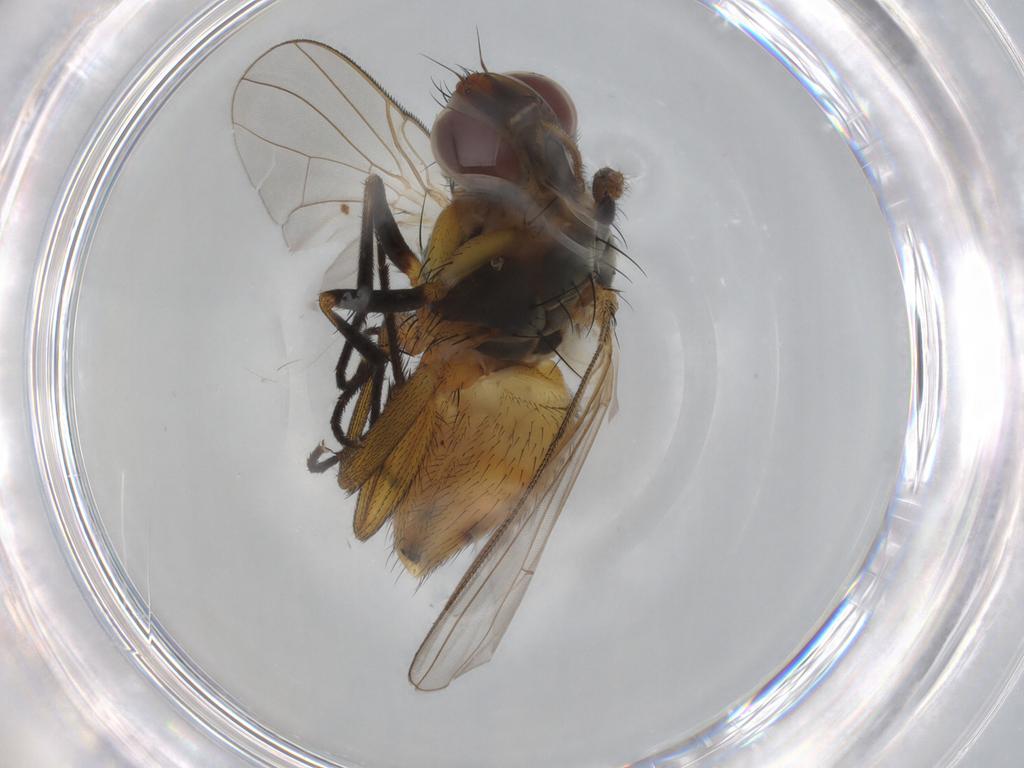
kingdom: Animalia
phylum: Arthropoda
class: Insecta
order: Diptera
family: Muscidae
